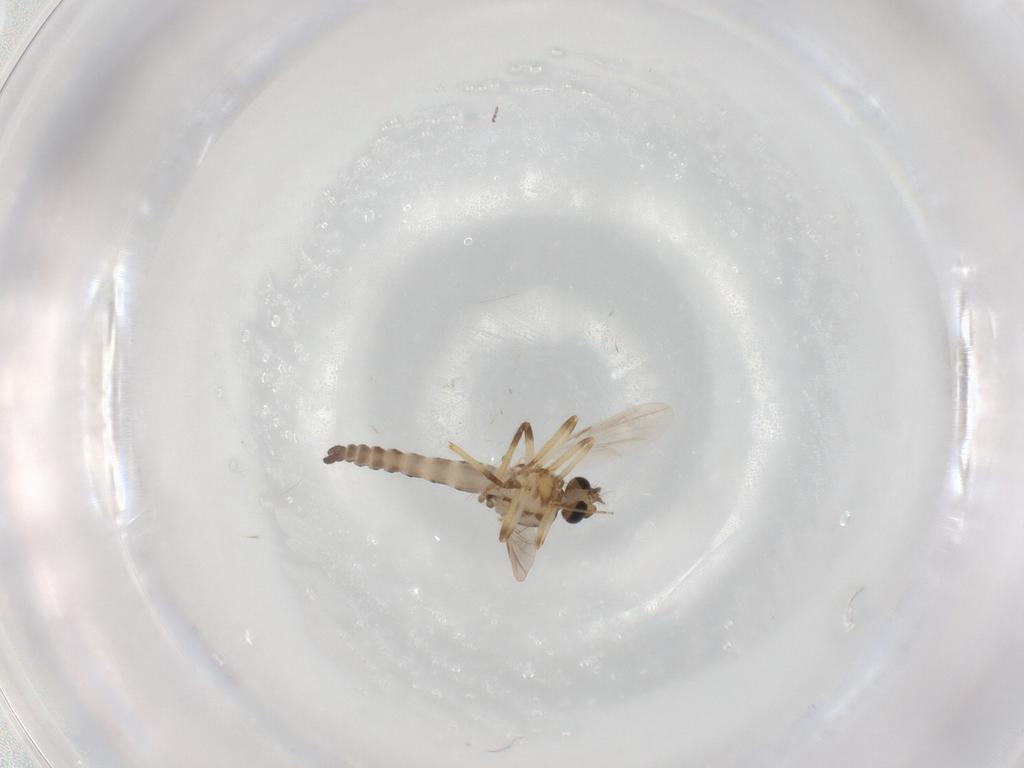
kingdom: Animalia
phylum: Arthropoda
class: Insecta
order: Diptera
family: Ceratopogonidae
